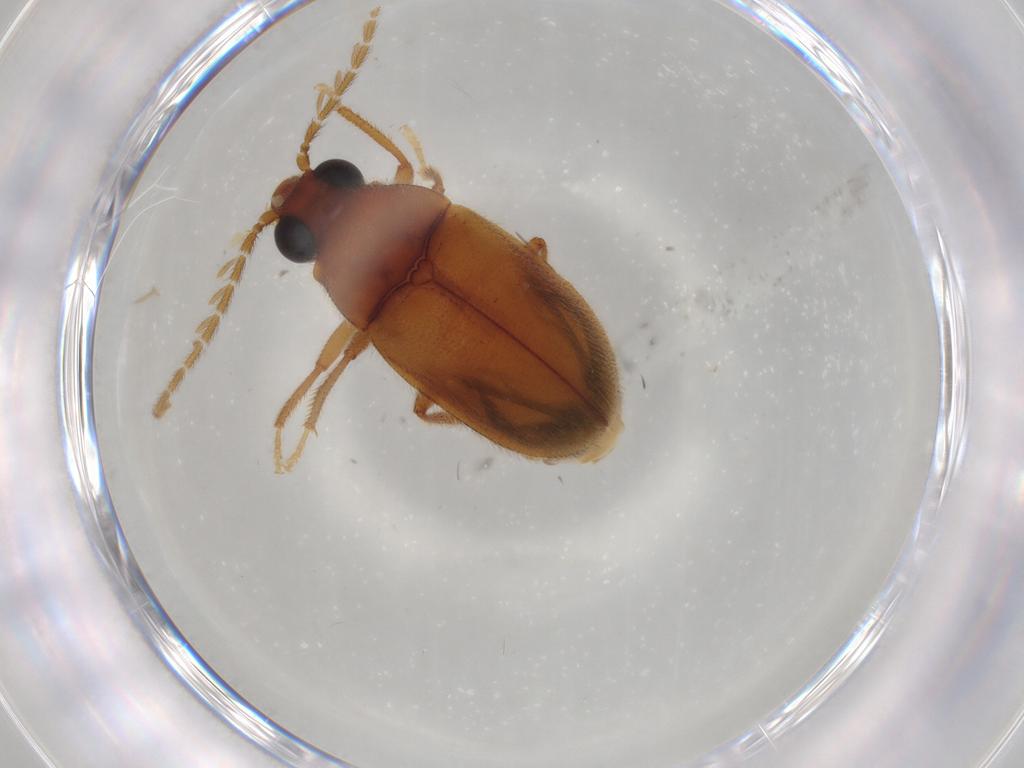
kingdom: Animalia
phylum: Arthropoda
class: Insecta
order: Coleoptera
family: Ptilodactylidae
